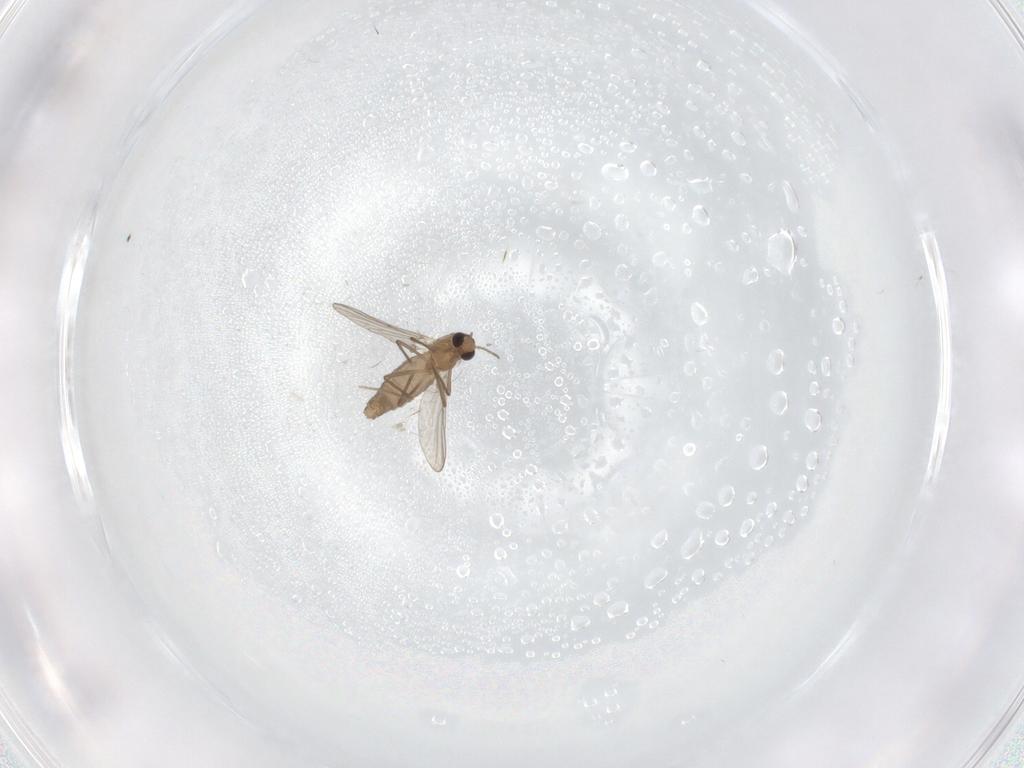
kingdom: Animalia
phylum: Arthropoda
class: Insecta
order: Diptera
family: Chironomidae
